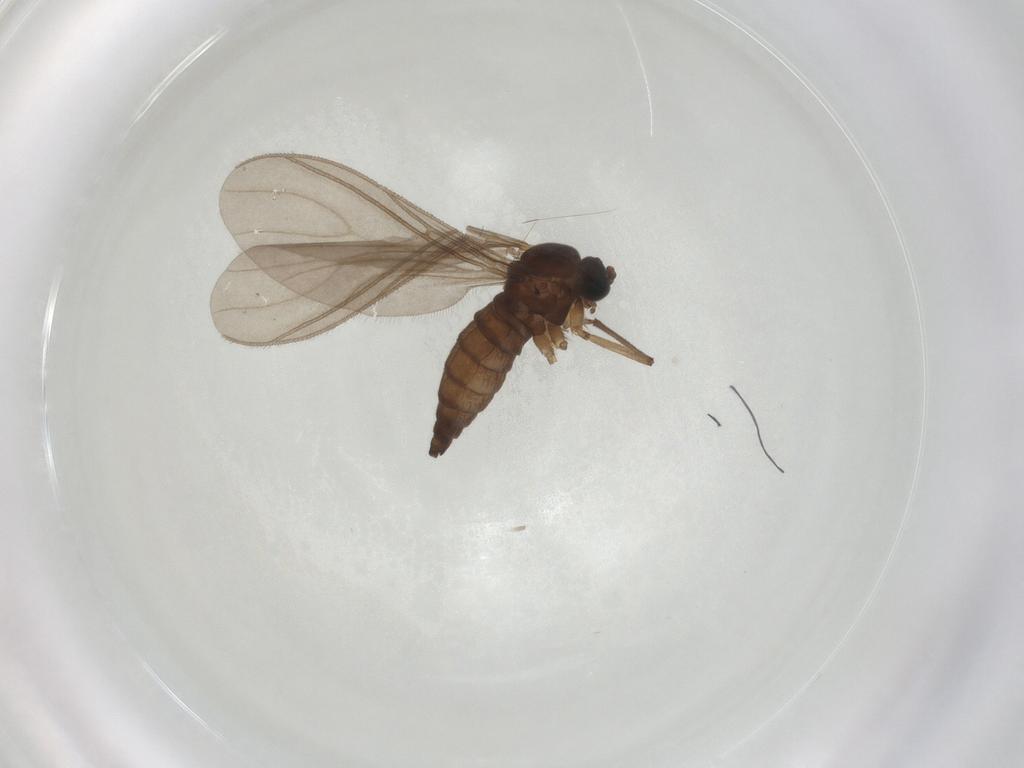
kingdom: Animalia
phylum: Arthropoda
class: Insecta
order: Diptera
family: Sciaridae
